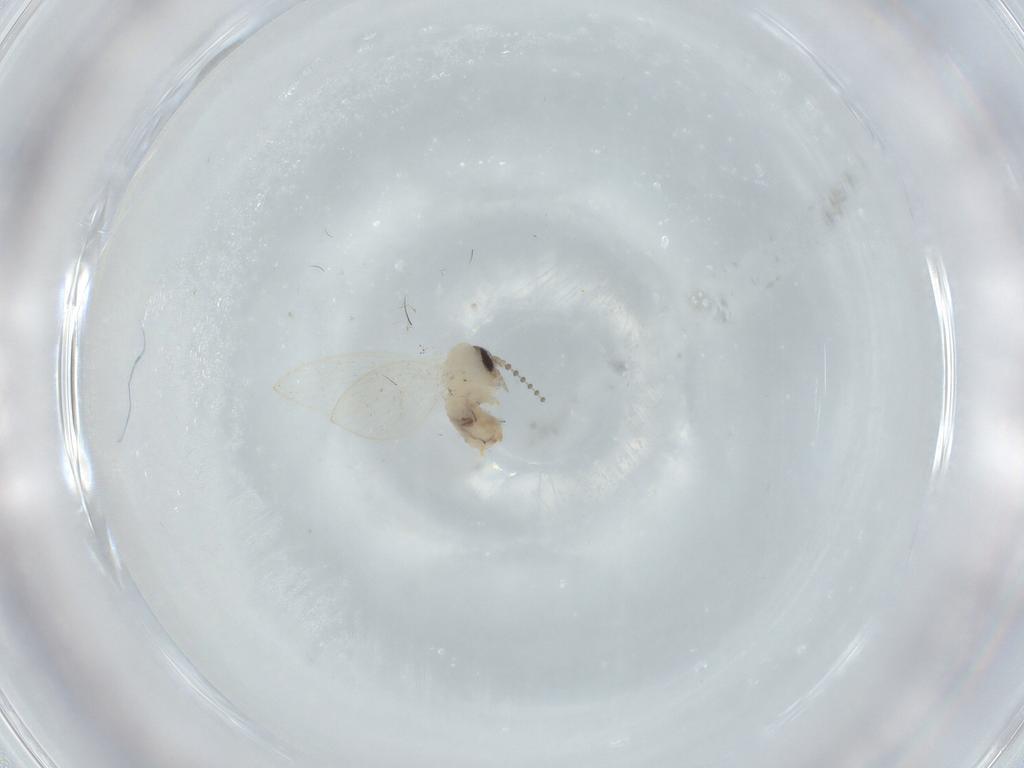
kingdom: Animalia
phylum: Arthropoda
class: Insecta
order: Diptera
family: Psychodidae
